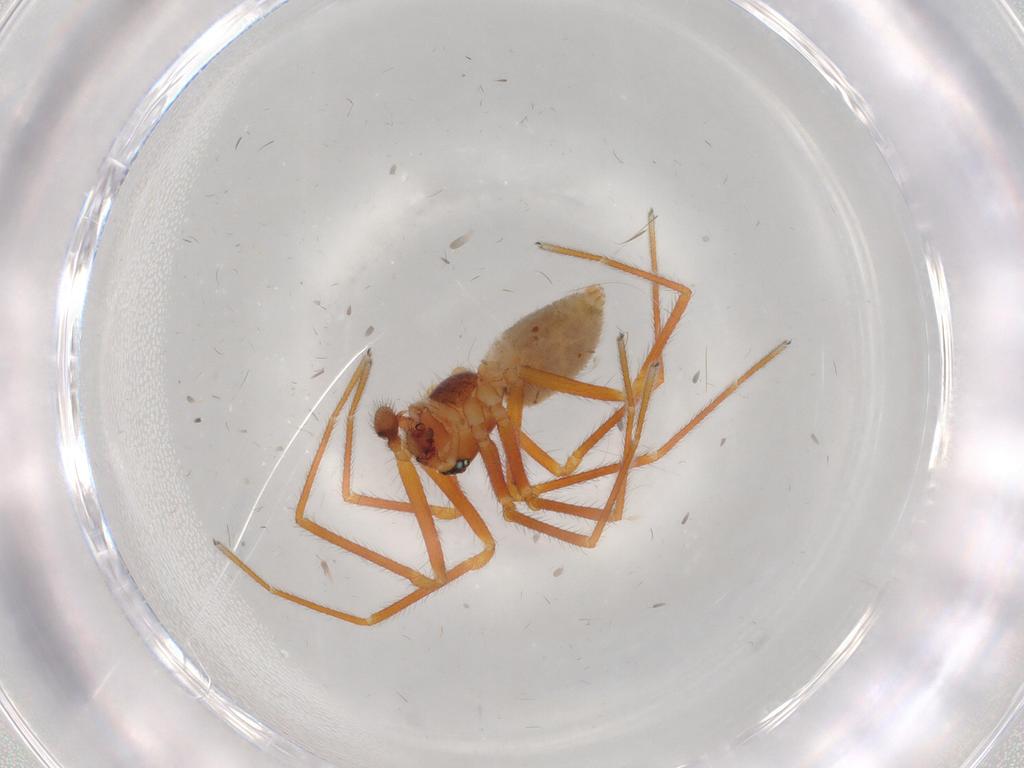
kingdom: Animalia
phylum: Arthropoda
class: Arachnida
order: Araneae
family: Linyphiidae
